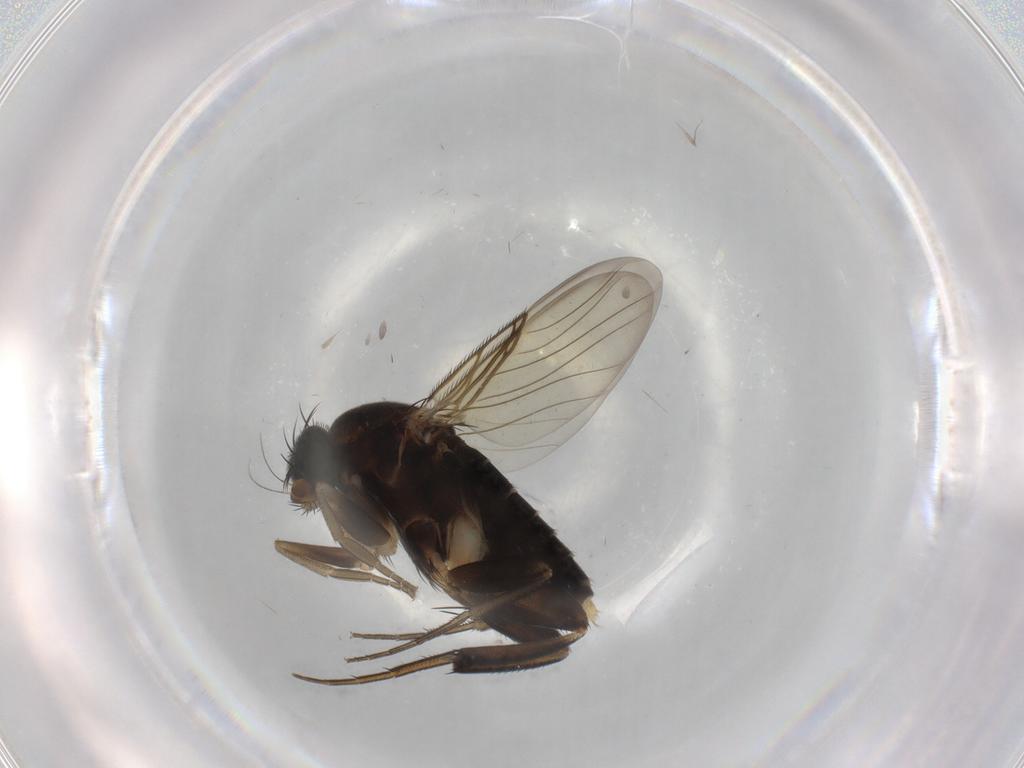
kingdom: Animalia
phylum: Arthropoda
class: Insecta
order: Diptera
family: Phoridae
